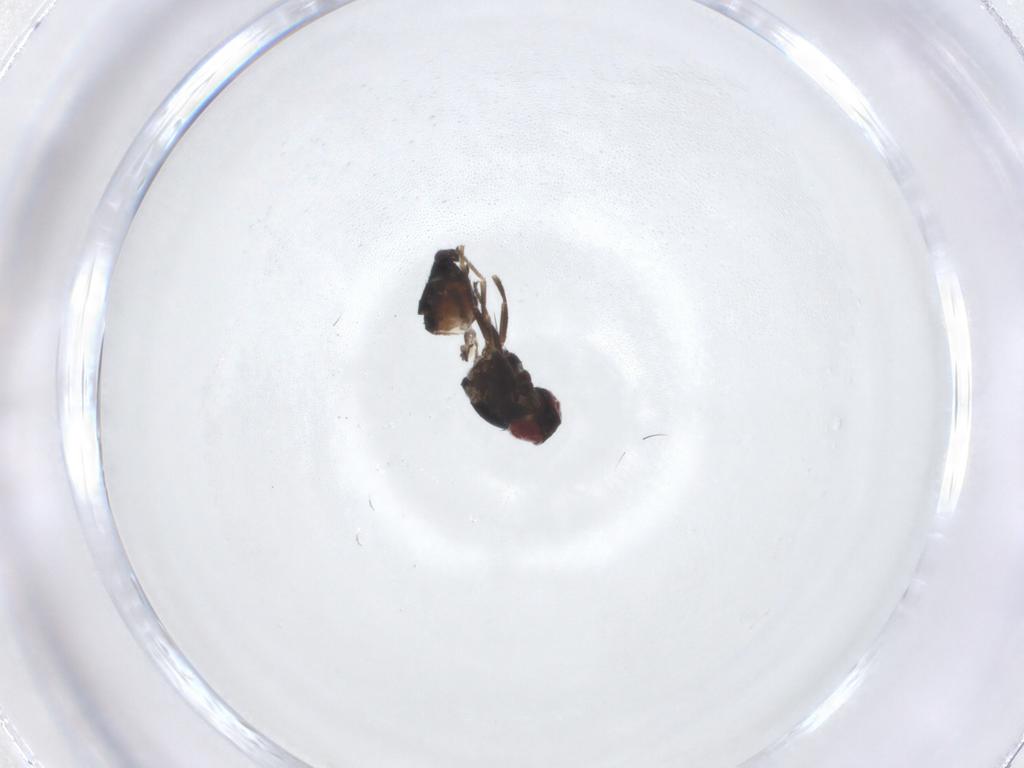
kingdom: Animalia
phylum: Arthropoda
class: Insecta
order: Diptera
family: Carnidae
